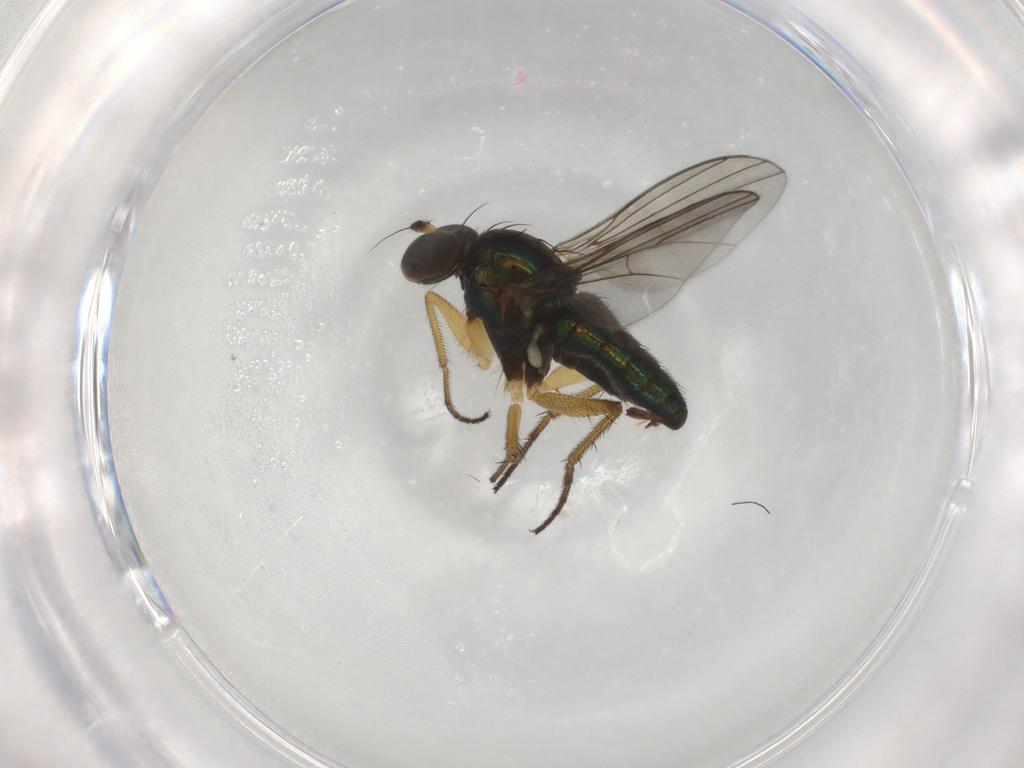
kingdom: Animalia
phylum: Arthropoda
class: Insecta
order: Diptera
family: Dolichopodidae
